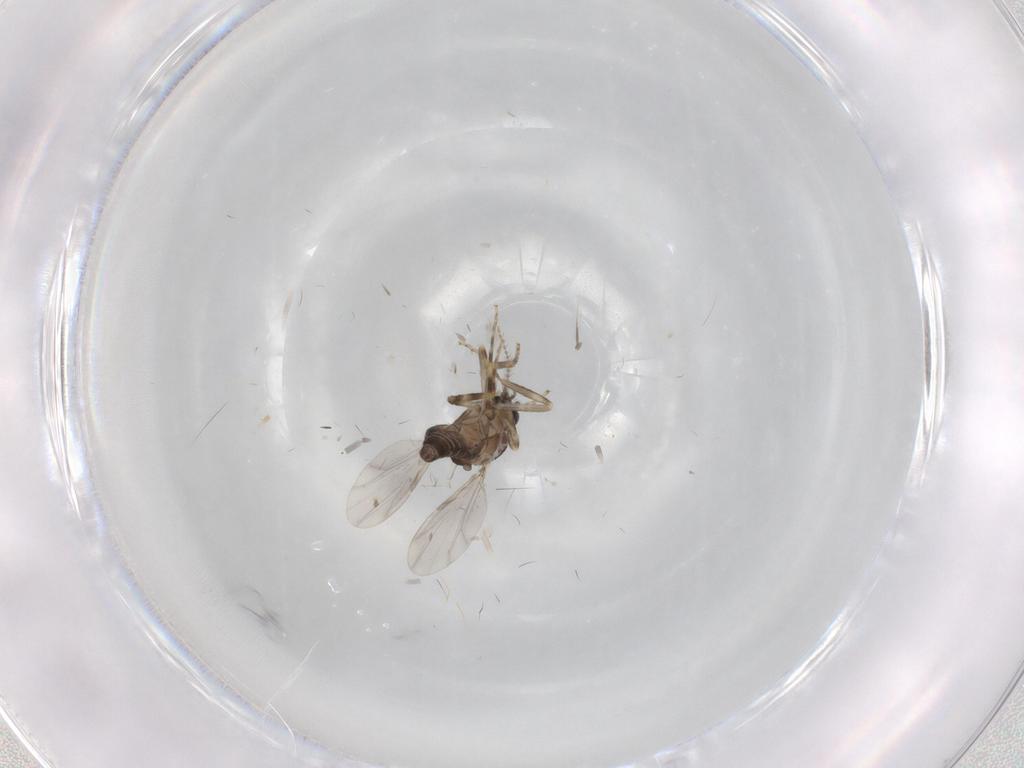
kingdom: Animalia
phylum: Arthropoda
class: Insecta
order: Diptera
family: Ceratopogonidae
